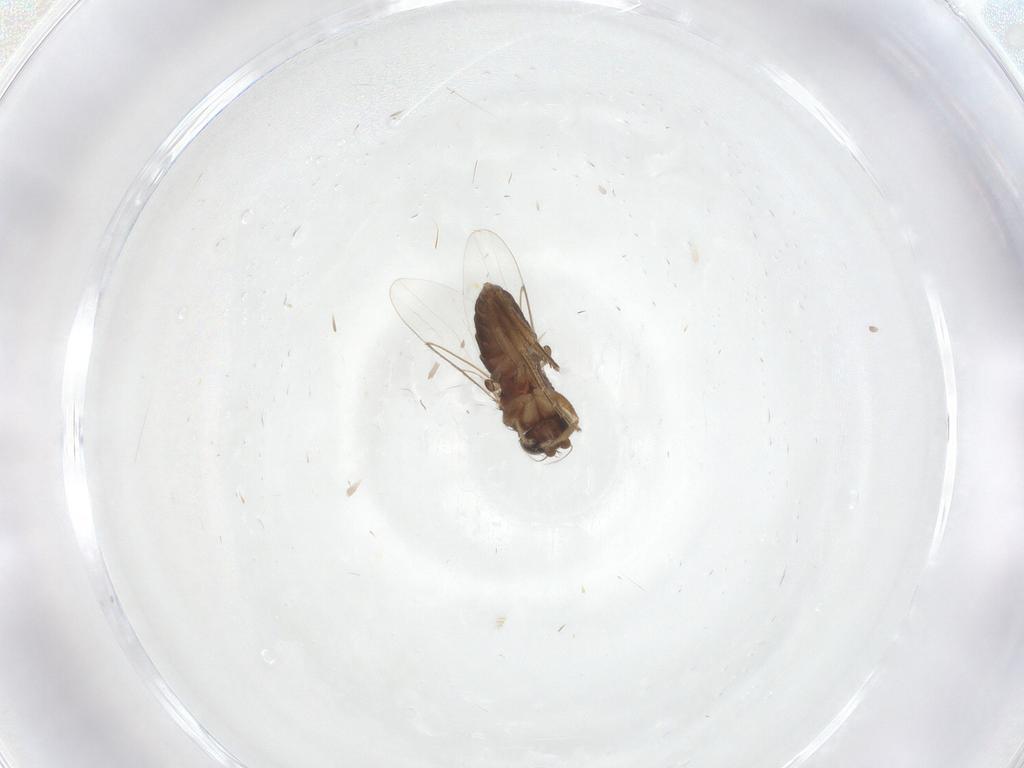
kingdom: Animalia
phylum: Arthropoda
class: Insecta
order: Diptera
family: Phoridae
